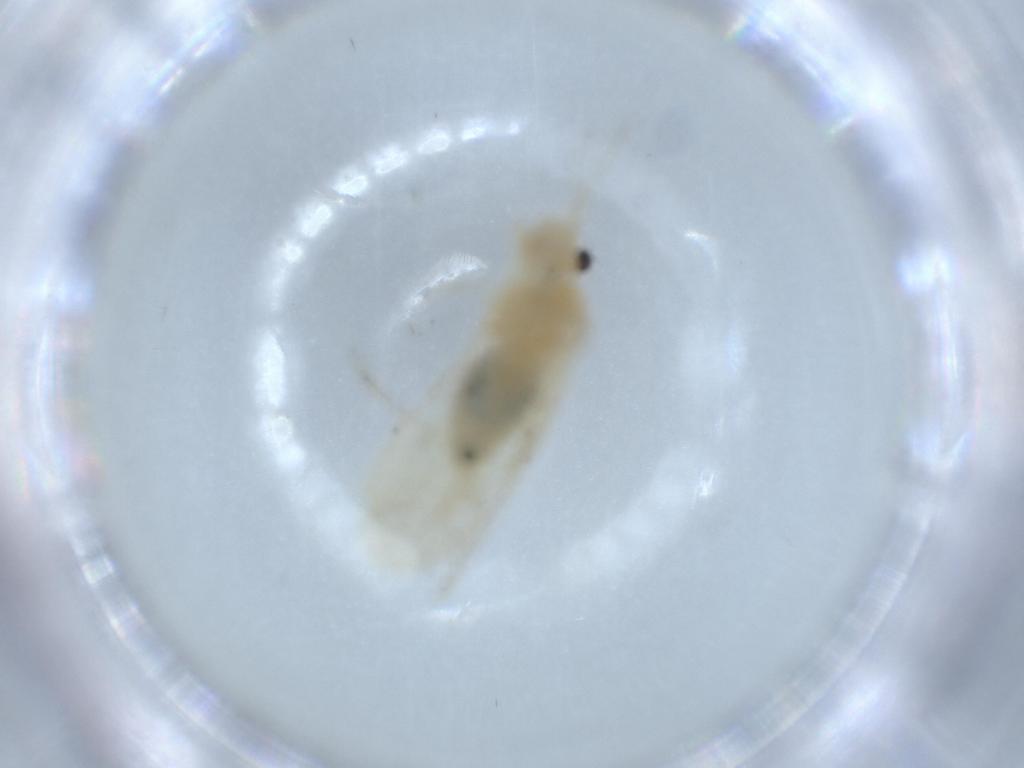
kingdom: Animalia
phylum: Arthropoda
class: Insecta
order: Psocodea
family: Caeciliusidae
